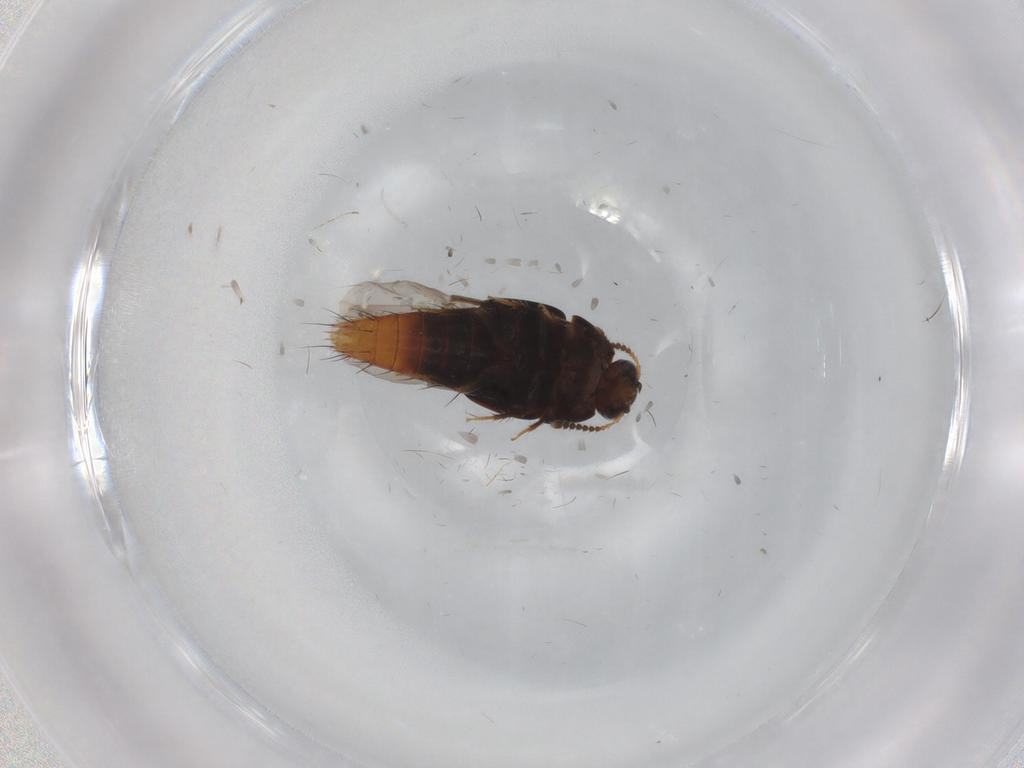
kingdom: Animalia
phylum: Arthropoda
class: Insecta
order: Coleoptera
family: Staphylinidae
